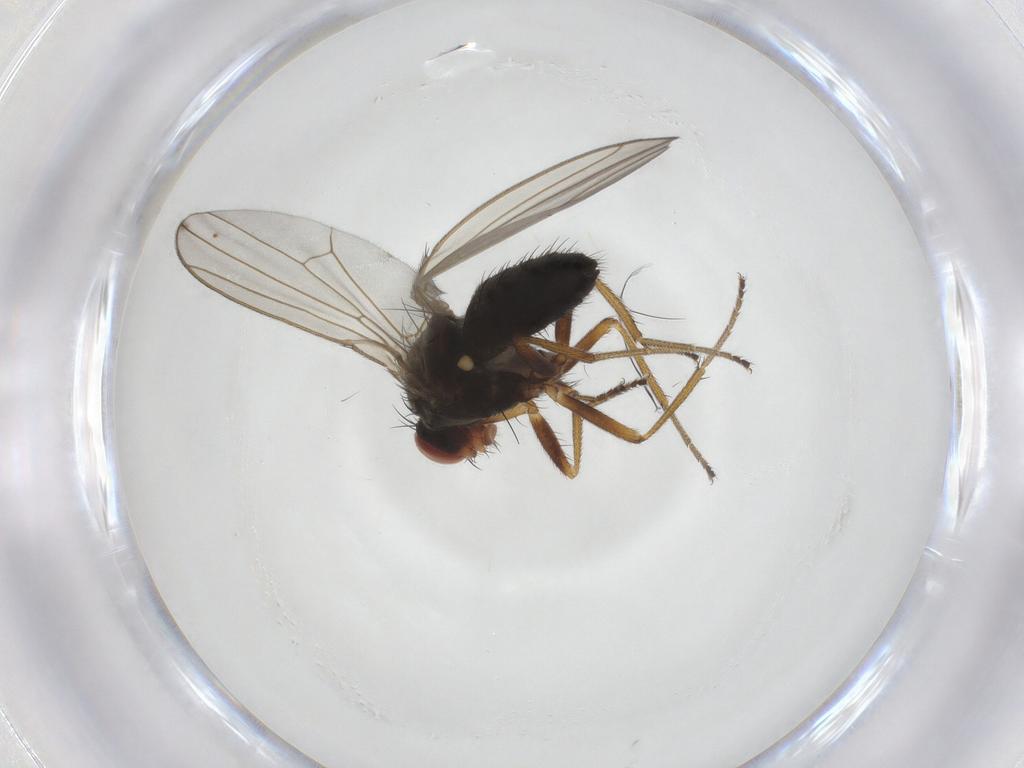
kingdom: Animalia
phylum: Arthropoda
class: Insecta
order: Diptera
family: Drosophilidae
